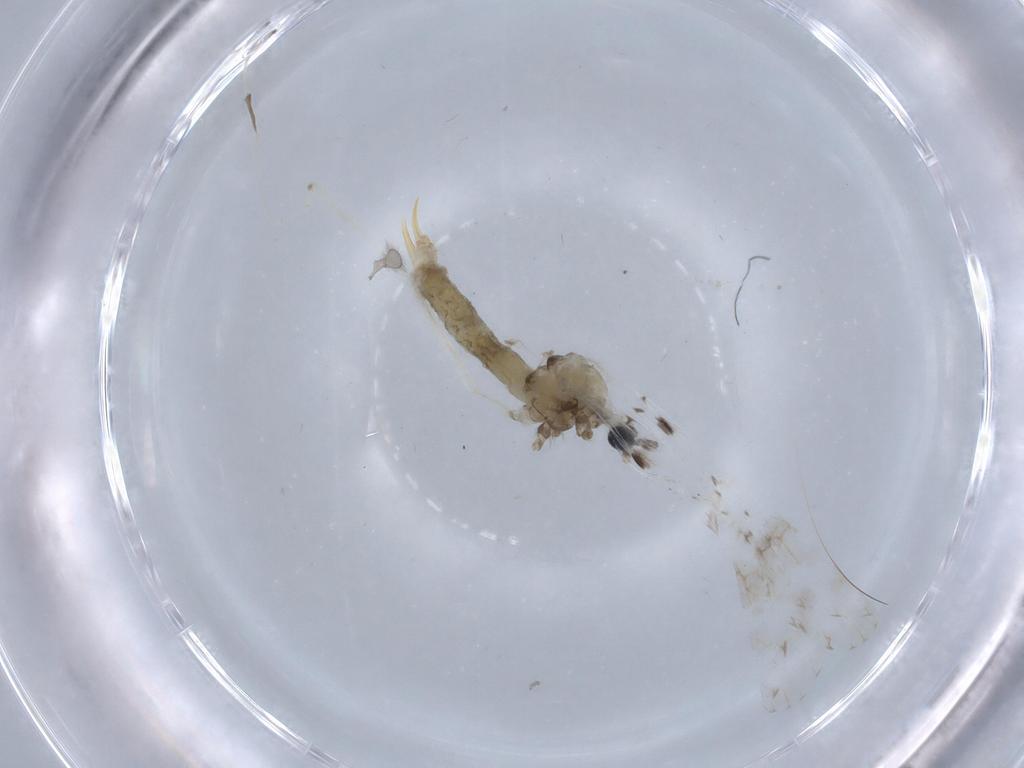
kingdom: Animalia
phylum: Arthropoda
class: Insecta
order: Diptera
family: Limoniidae
